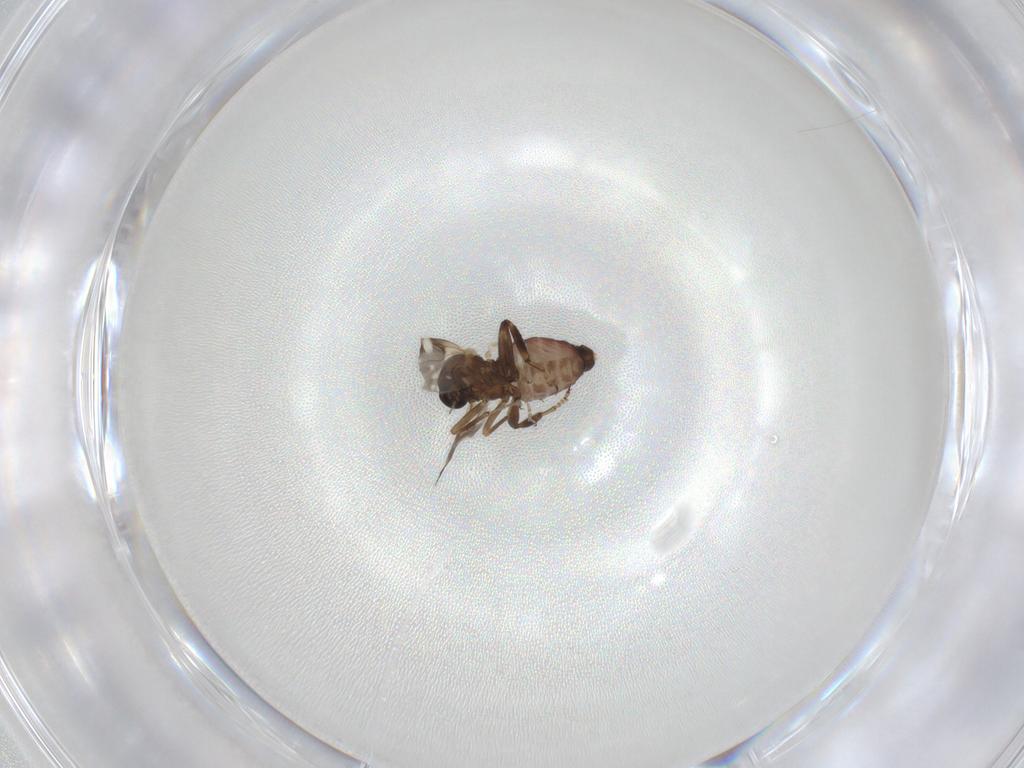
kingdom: Animalia
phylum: Arthropoda
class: Insecta
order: Diptera
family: Ceratopogonidae
